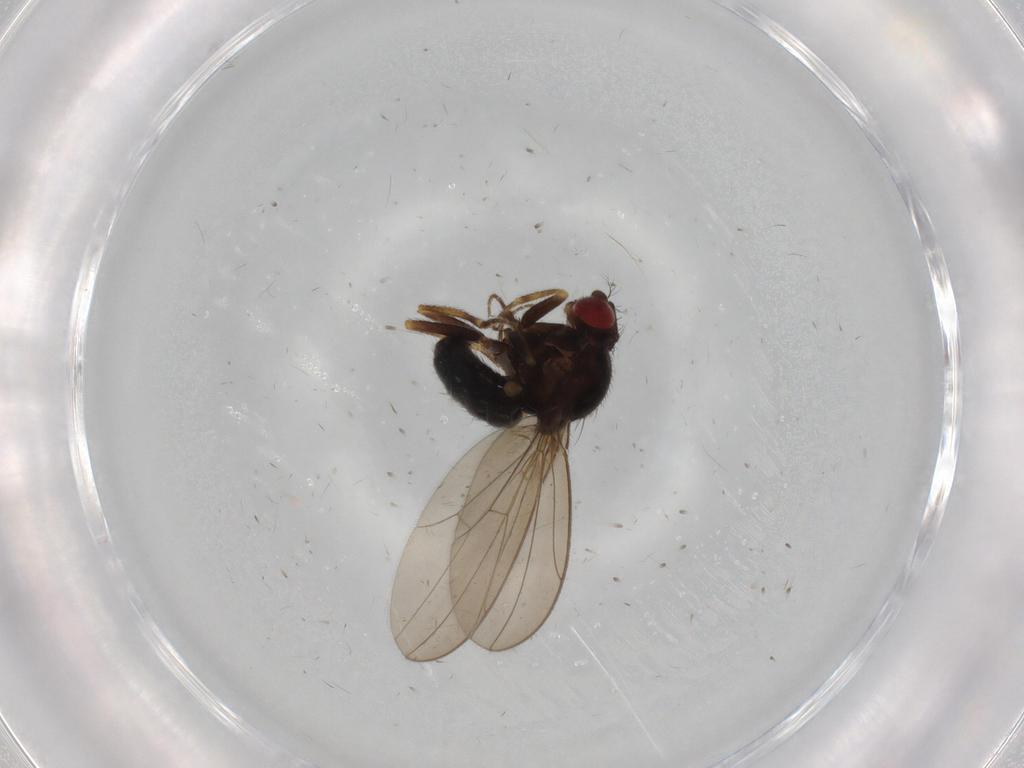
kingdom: Animalia
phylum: Arthropoda
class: Insecta
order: Diptera
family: Drosophilidae
